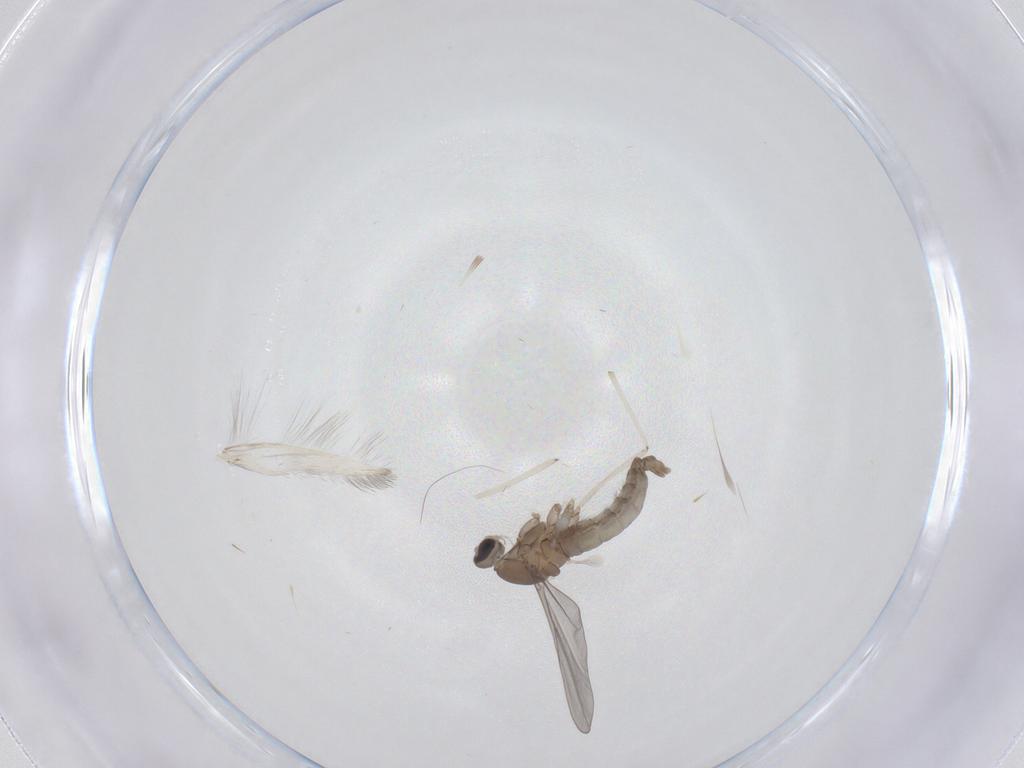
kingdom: Animalia
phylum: Arthropoda
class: Insecta
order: Diptera
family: Cecidomyiidae
